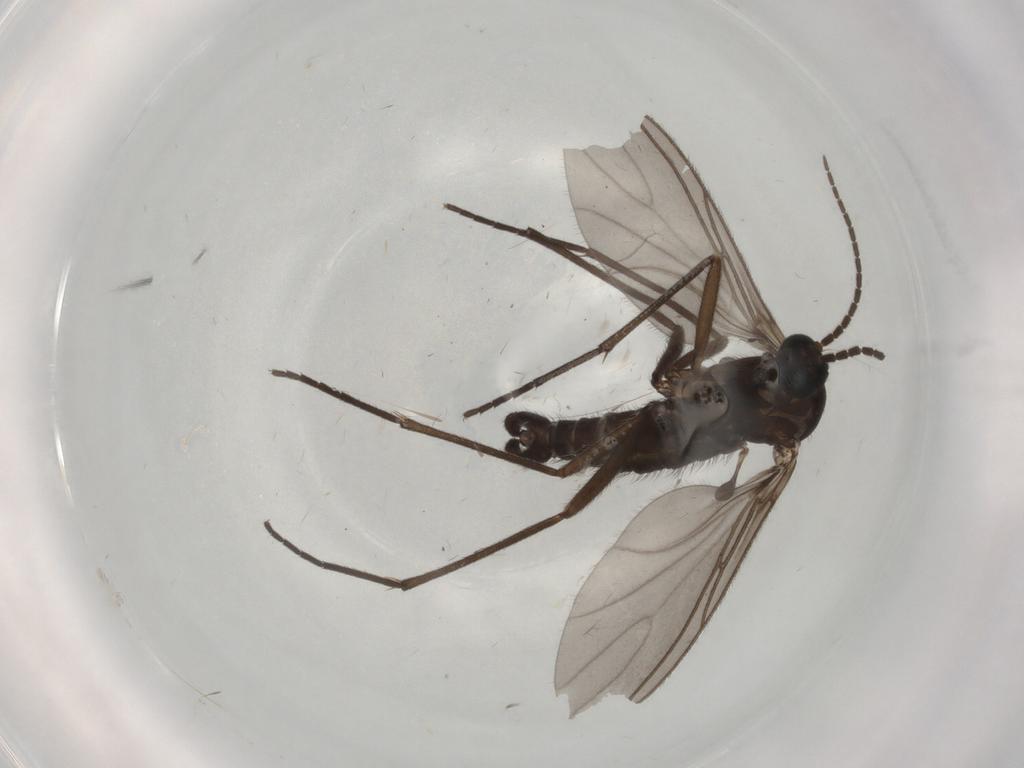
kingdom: Animalia
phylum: Arthropoda
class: Insecta
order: Diptera
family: Sciaridae
